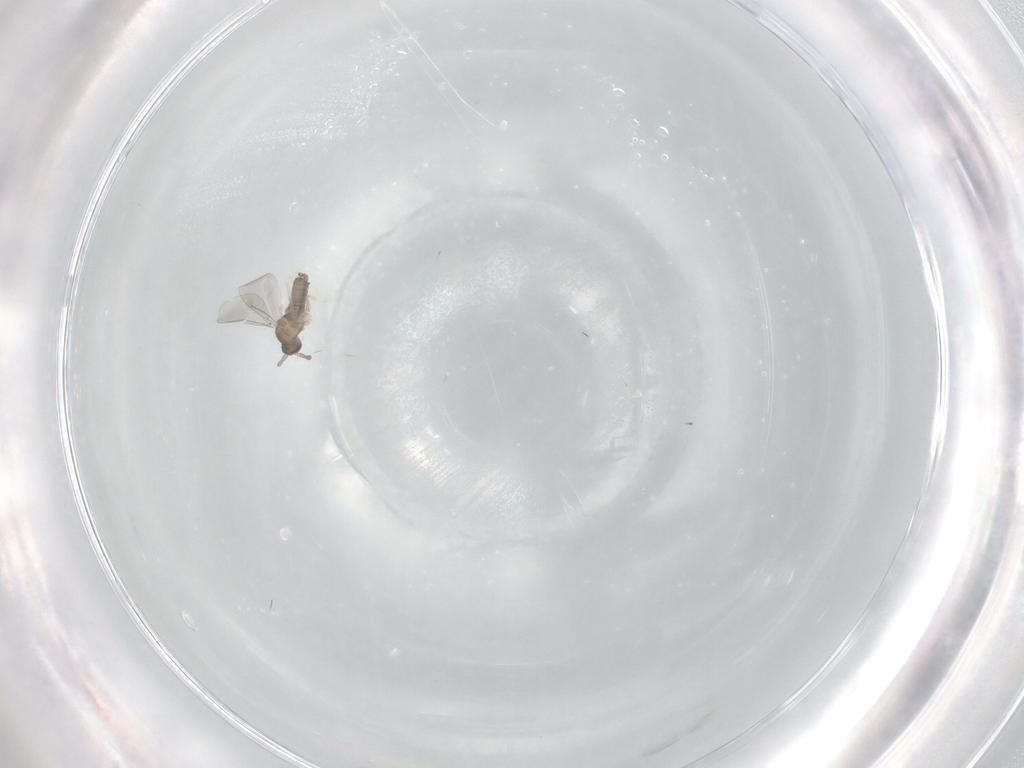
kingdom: Animalia
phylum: Arthropoda
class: Insecta
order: Diptera
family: Cecidomyiidae
